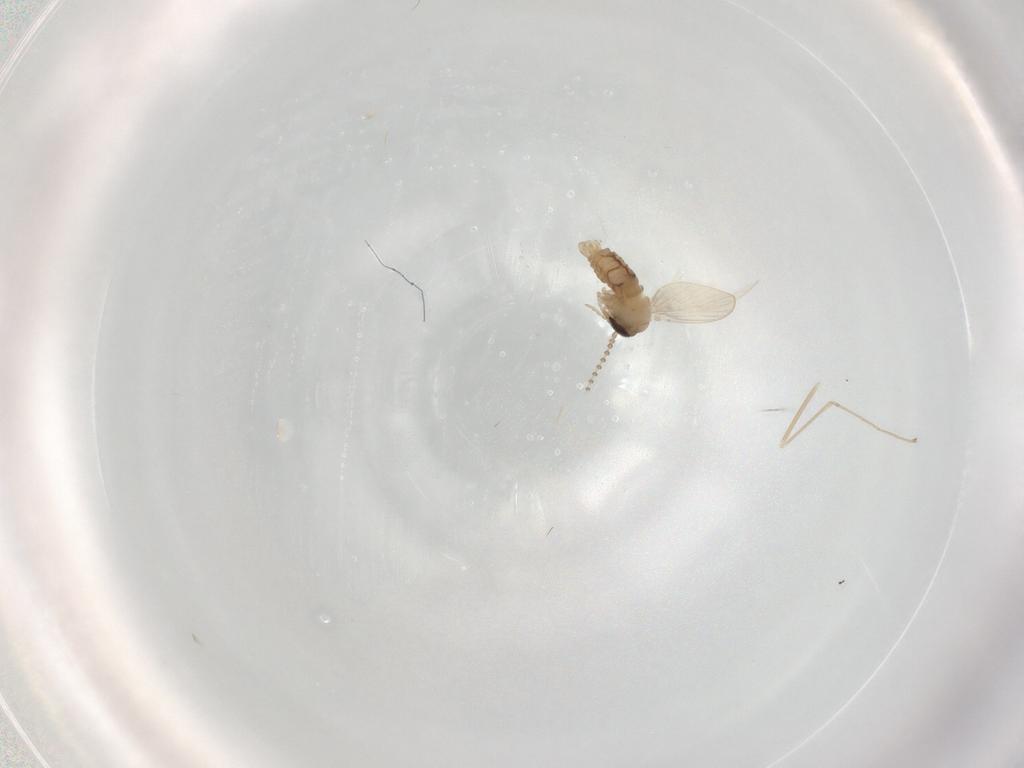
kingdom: Animalia
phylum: Arthropoda
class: Insecta
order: Diptera
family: Cecidomyiidae
